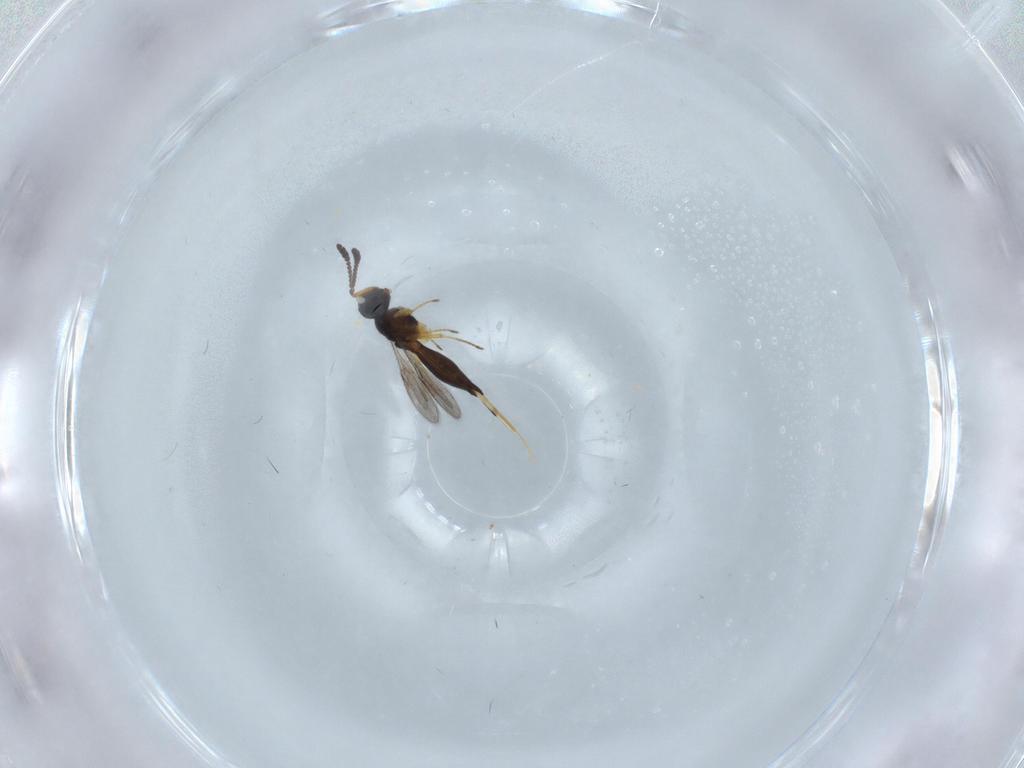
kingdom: Animalia
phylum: Arthropoda
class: Insecta
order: Hymenoptera
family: Scelionidae
